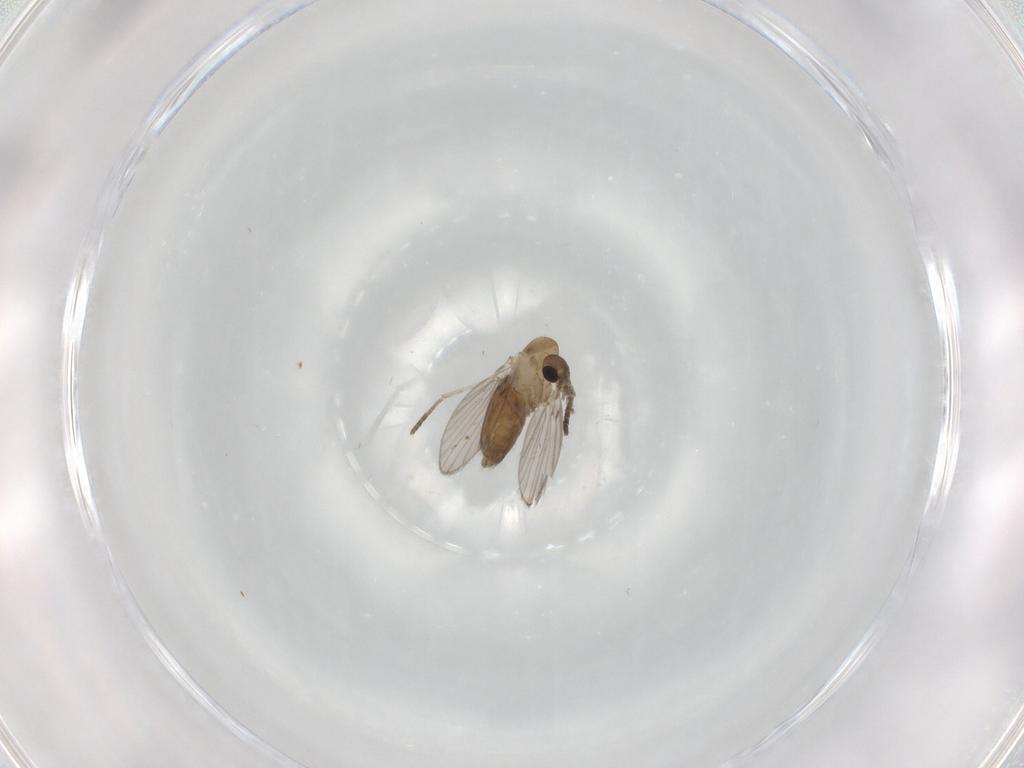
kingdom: Animalia
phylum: Arthropoda
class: Insecta
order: Diptera
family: Psychodidae
